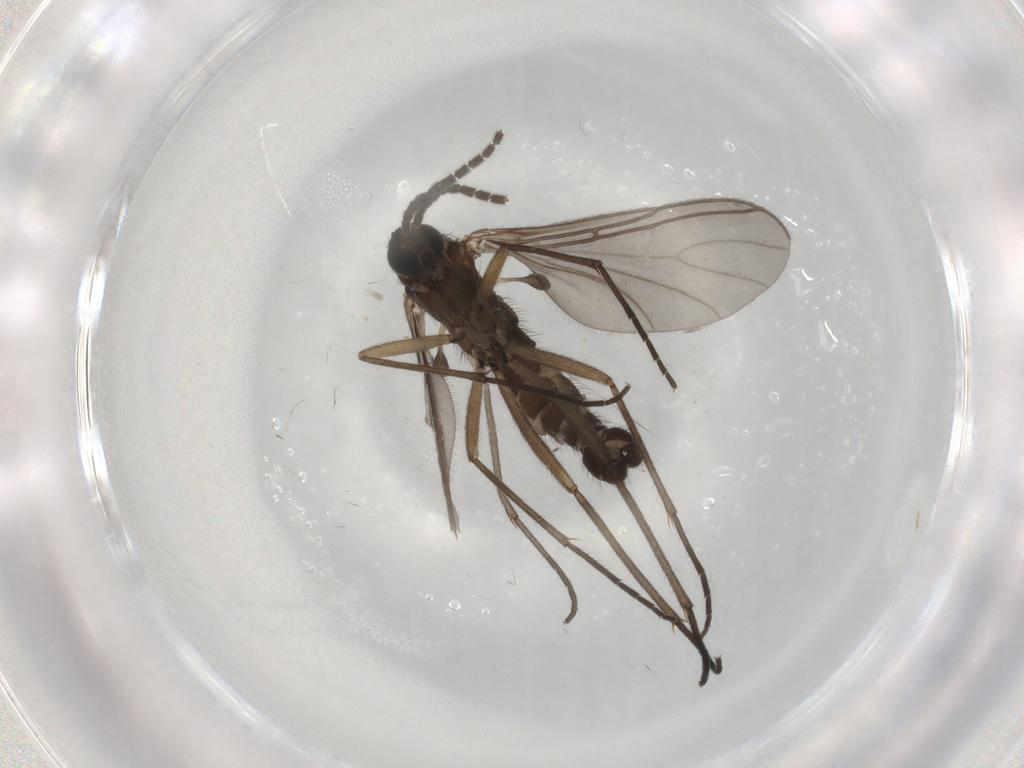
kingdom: Animalia
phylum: Arthropoda
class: Insecta
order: Diptera
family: Sciaridae
